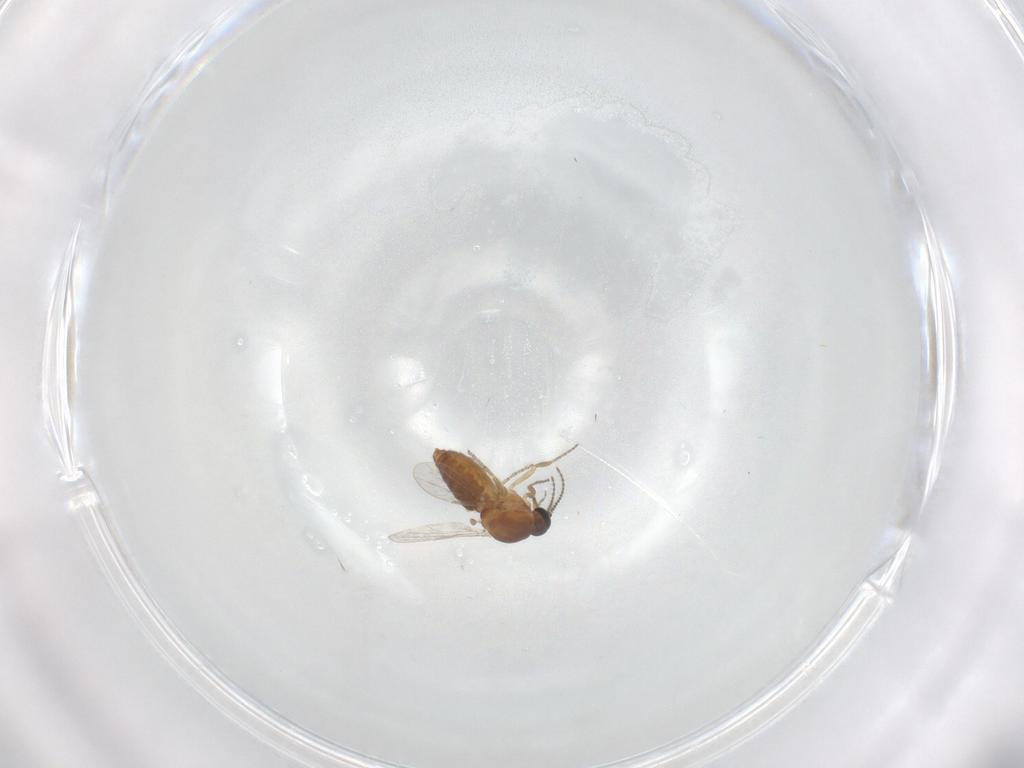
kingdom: Animalia
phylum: Arthropoda
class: Insecta
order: Diptera
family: Ceratopogonidae
